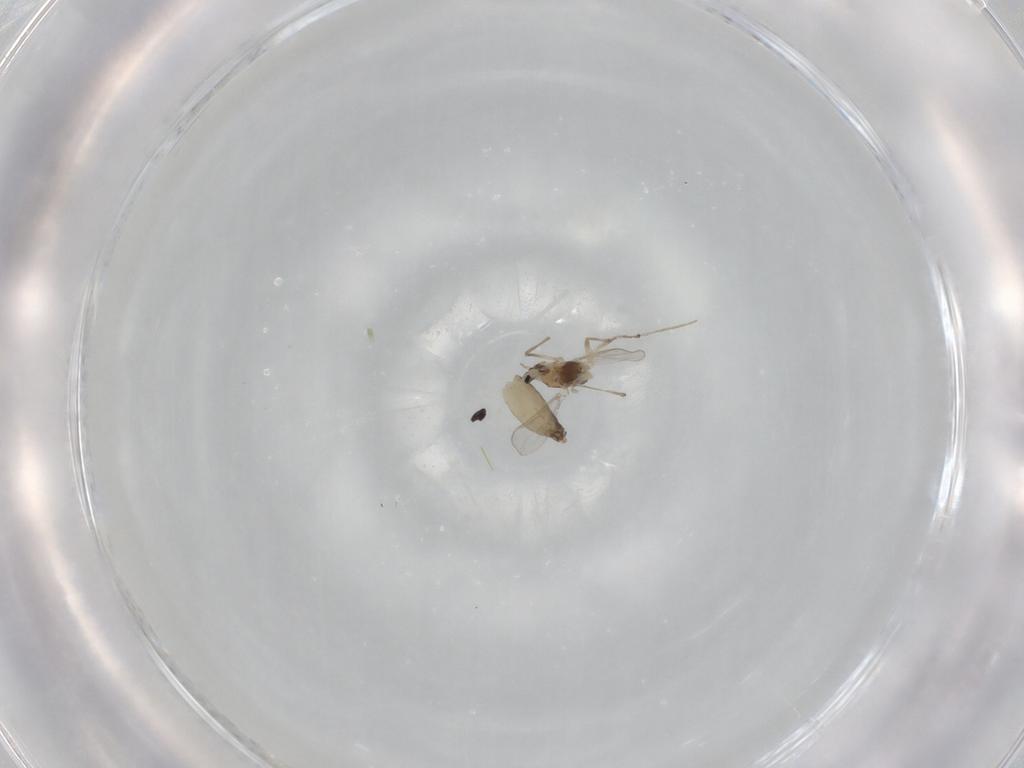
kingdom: Animalia
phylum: Arthropoda
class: Insecta
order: Diptera
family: Chironomidae
